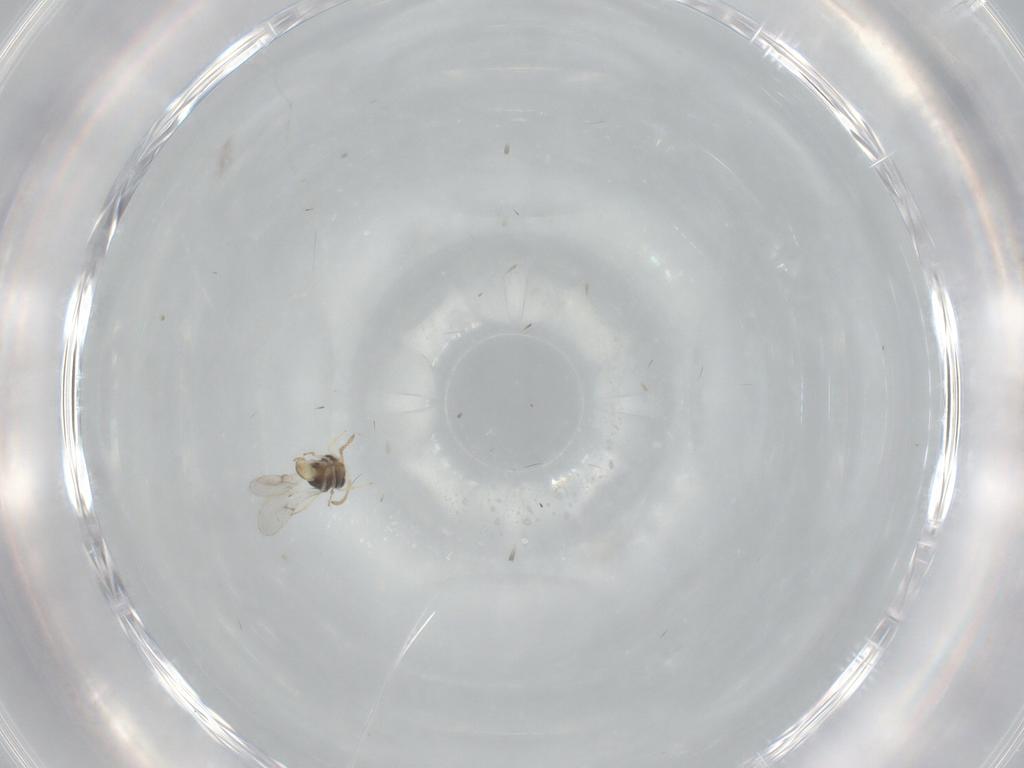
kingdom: Animalia
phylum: Arthropoda
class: Insecta
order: Hymenoptera
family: Scelionidae
